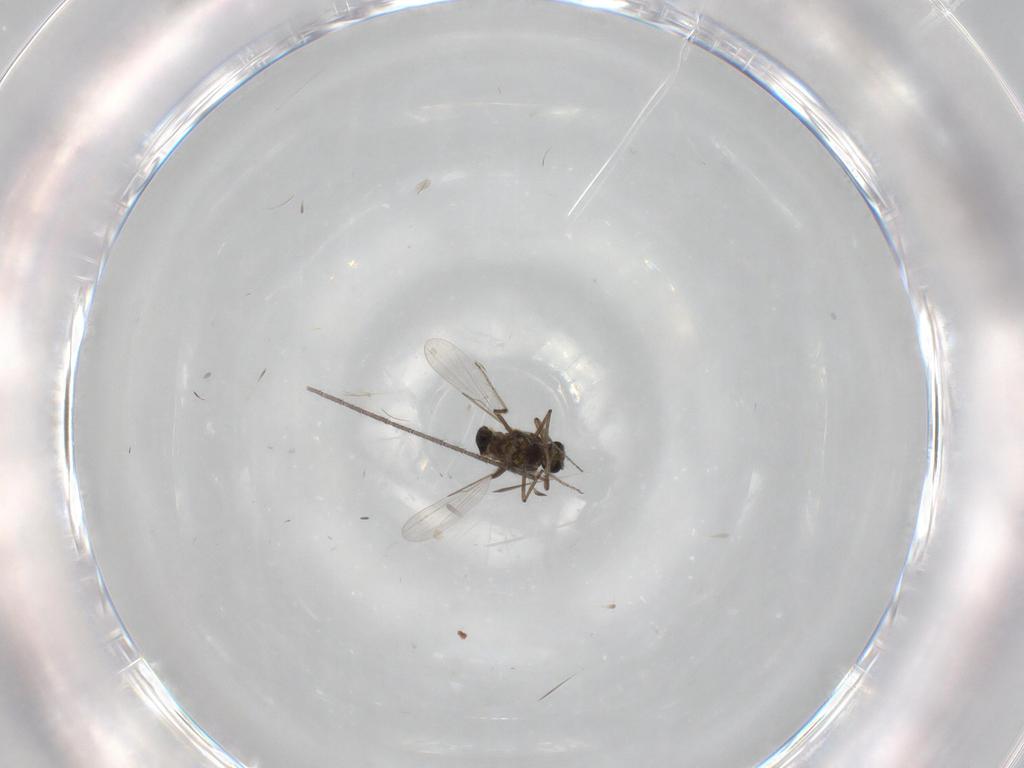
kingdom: Animalia
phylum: Arthropoda
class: Insecta
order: Diptera
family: Ceratopogonidae
